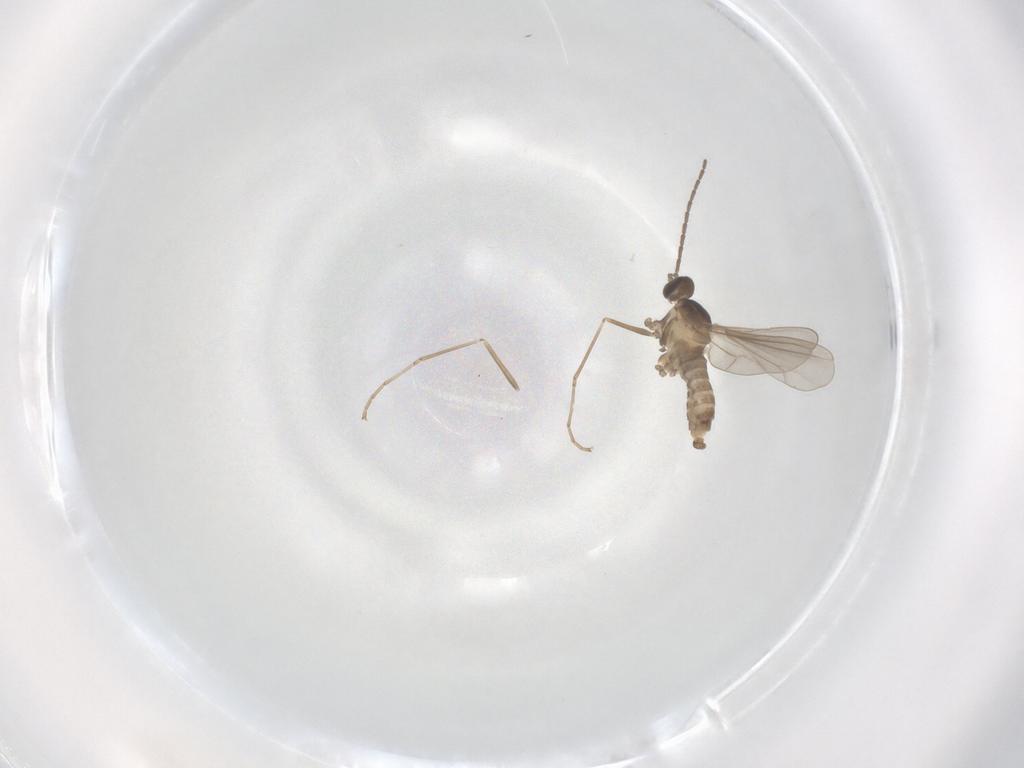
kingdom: Animalia
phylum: Arthropoda
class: Insecta
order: Diptera
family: Cecidomyiidae
